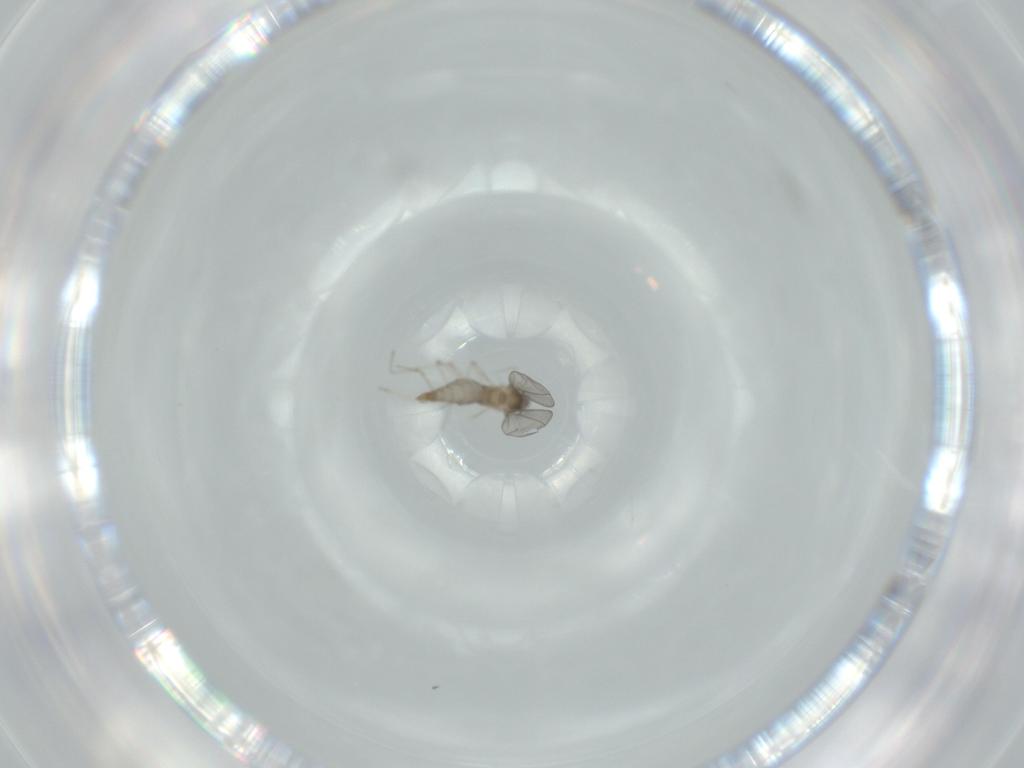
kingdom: Animalia
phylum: Arthropoda
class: Insecta
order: Diptera
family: Cecidomyiidae
